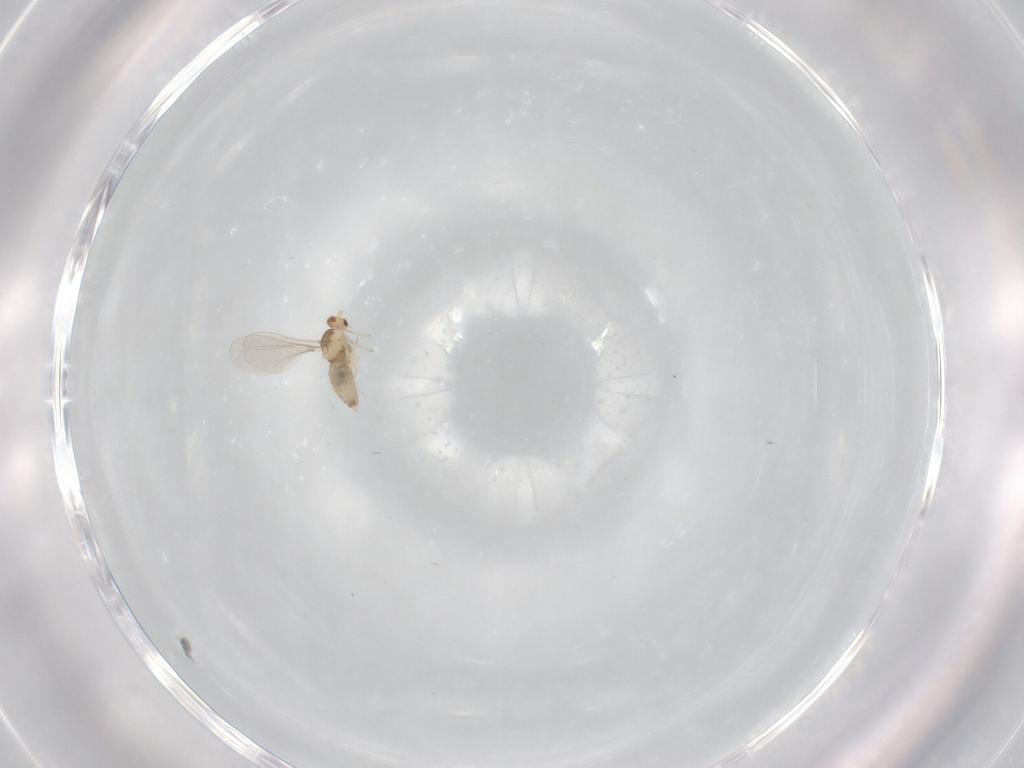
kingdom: Animalia
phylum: Arthropoda
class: Insecta
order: Diptera
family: Cecidomyiidae
